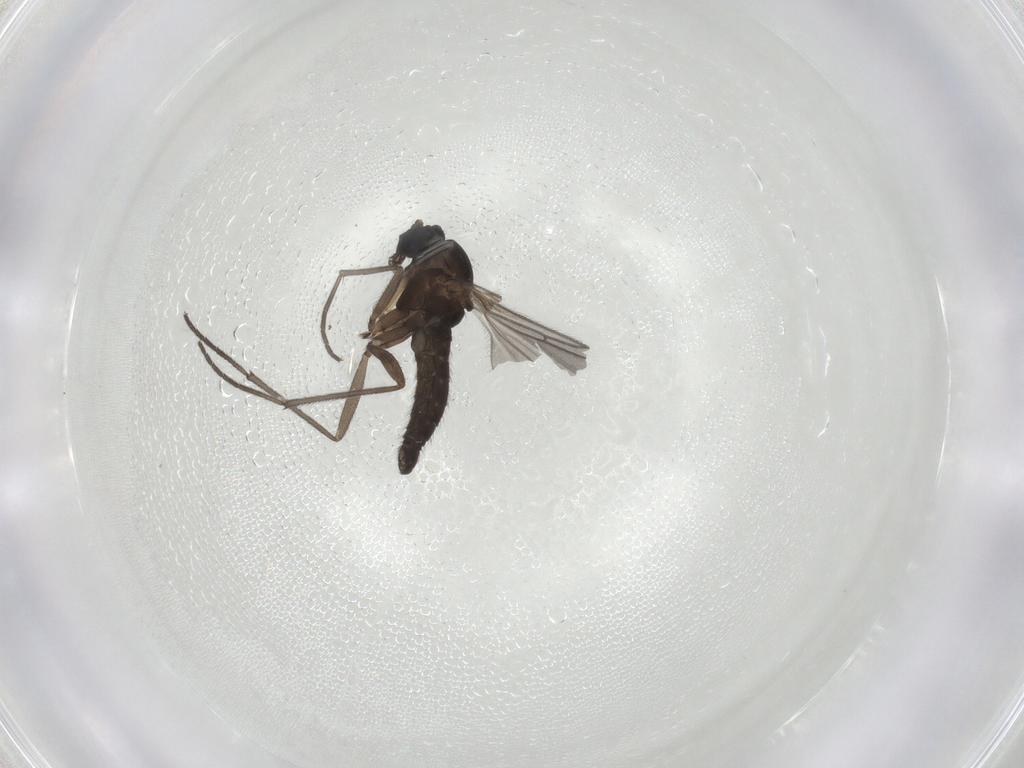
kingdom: Animalia
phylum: Arthropoda
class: Insecta
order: Diptera
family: Sciaridae
